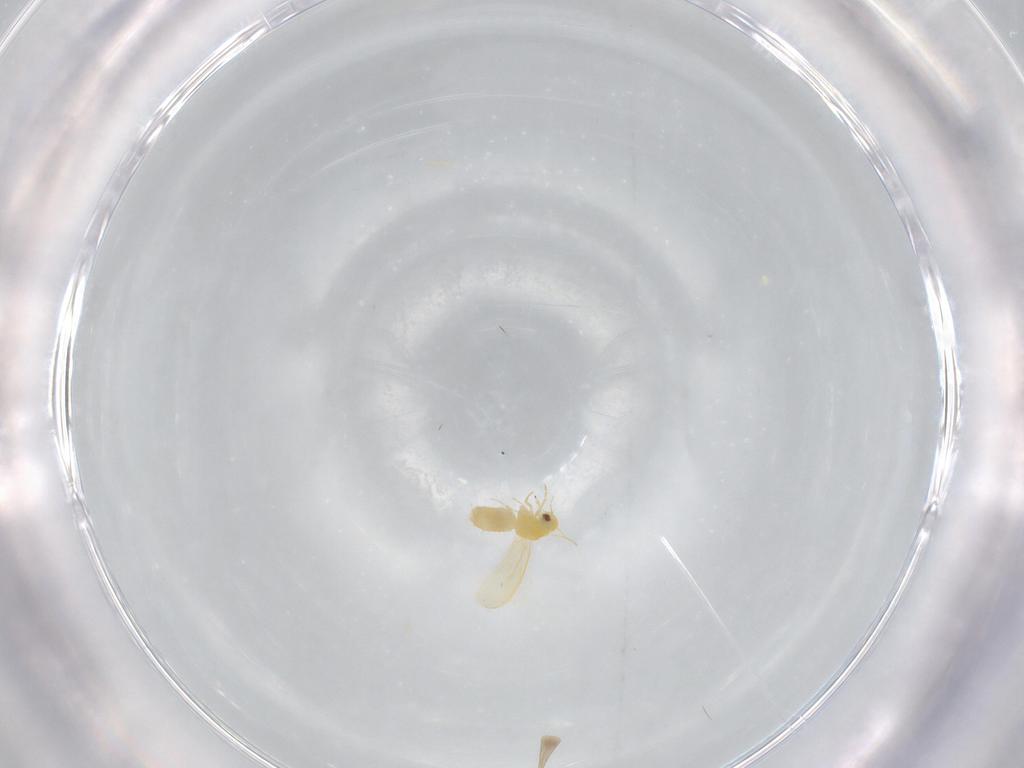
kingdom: Animalia
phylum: Arthropoda
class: Insecta
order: Hemiptera
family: Aleyrodidae
